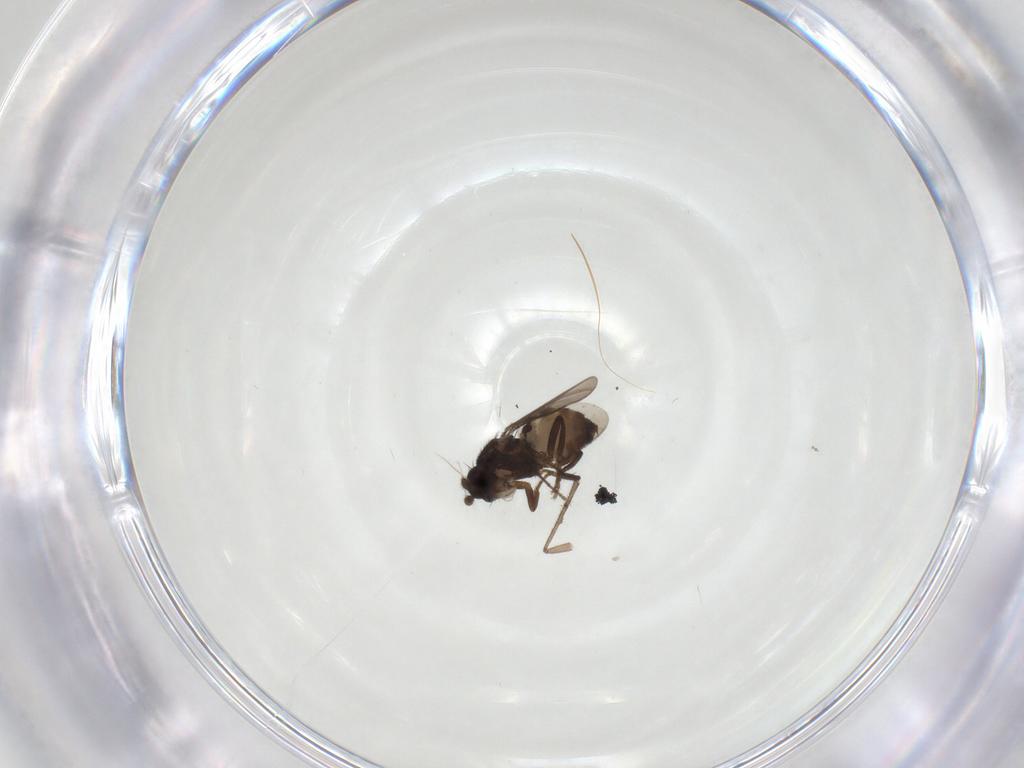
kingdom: Animalia
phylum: Arthropoda
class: Insecta
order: Diptera
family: Sphaeroceridae
